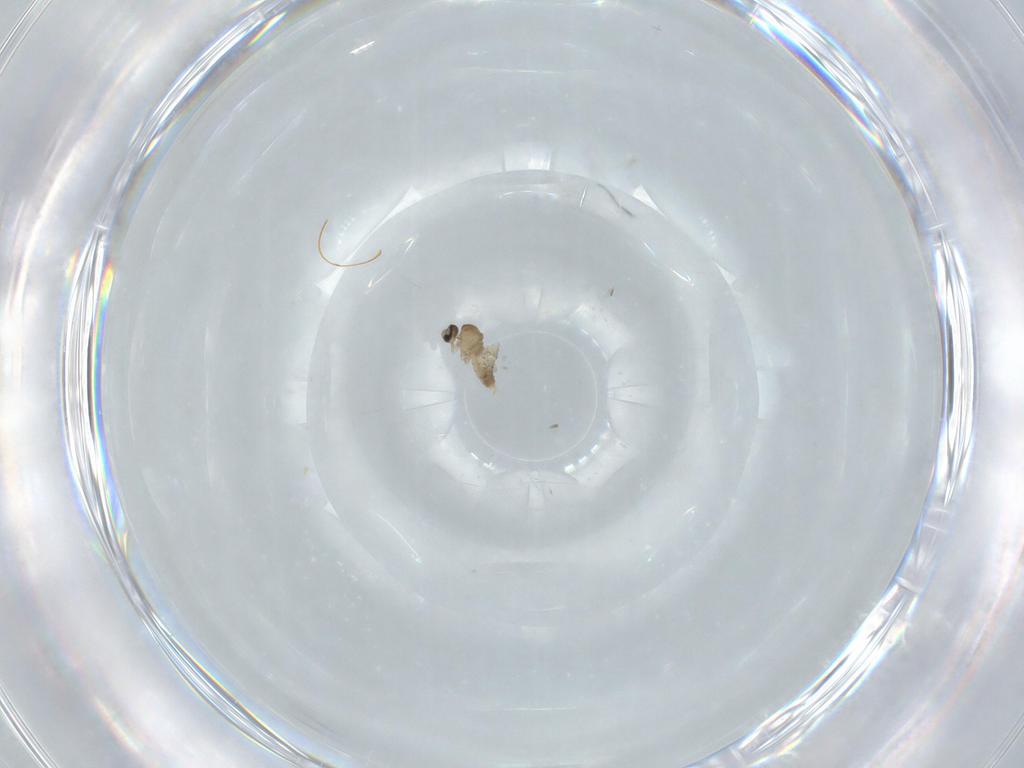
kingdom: Animalia
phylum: Arthropoda
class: Insecta
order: Diptera
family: Cecidomyiidae
